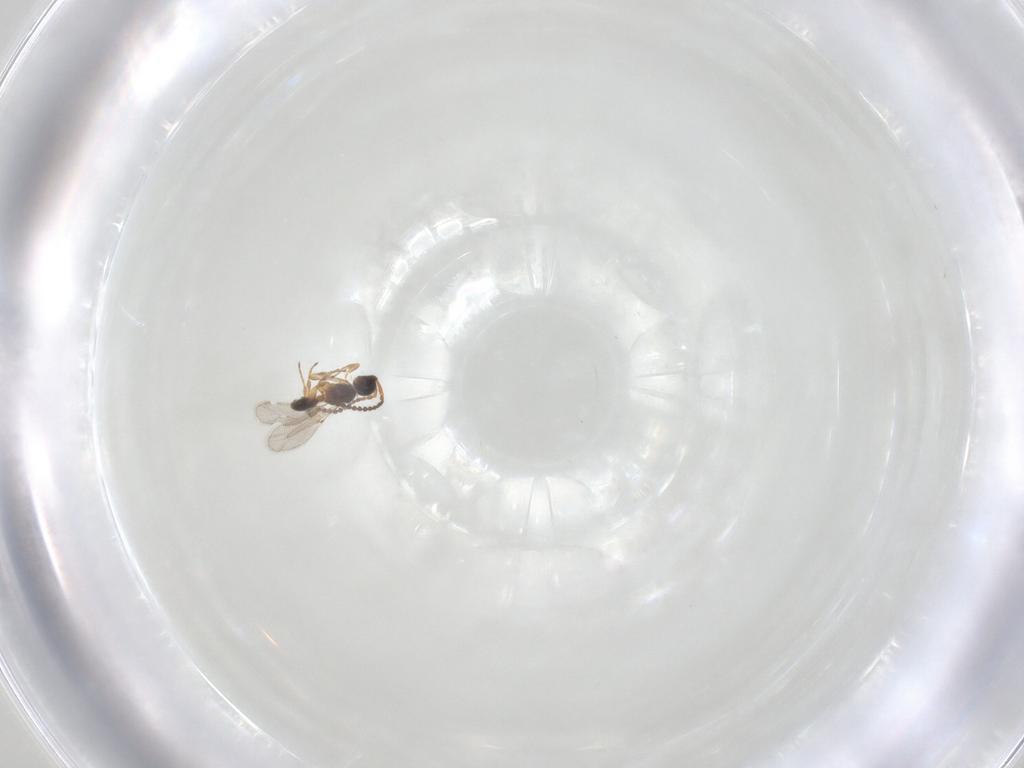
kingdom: Animalia
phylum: Arthropoda
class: Insecta
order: Hymenoptera
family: Diapriidae
